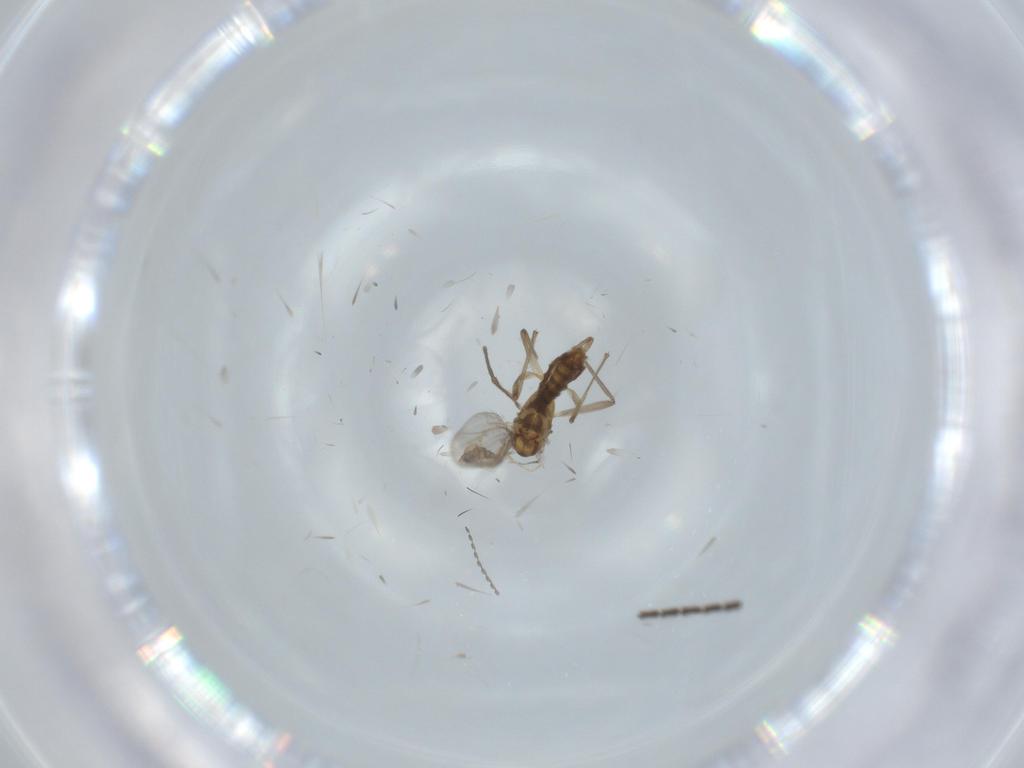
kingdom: Animalia
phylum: Arthropoda
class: Insecta
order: Diptera
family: Chironomidae
